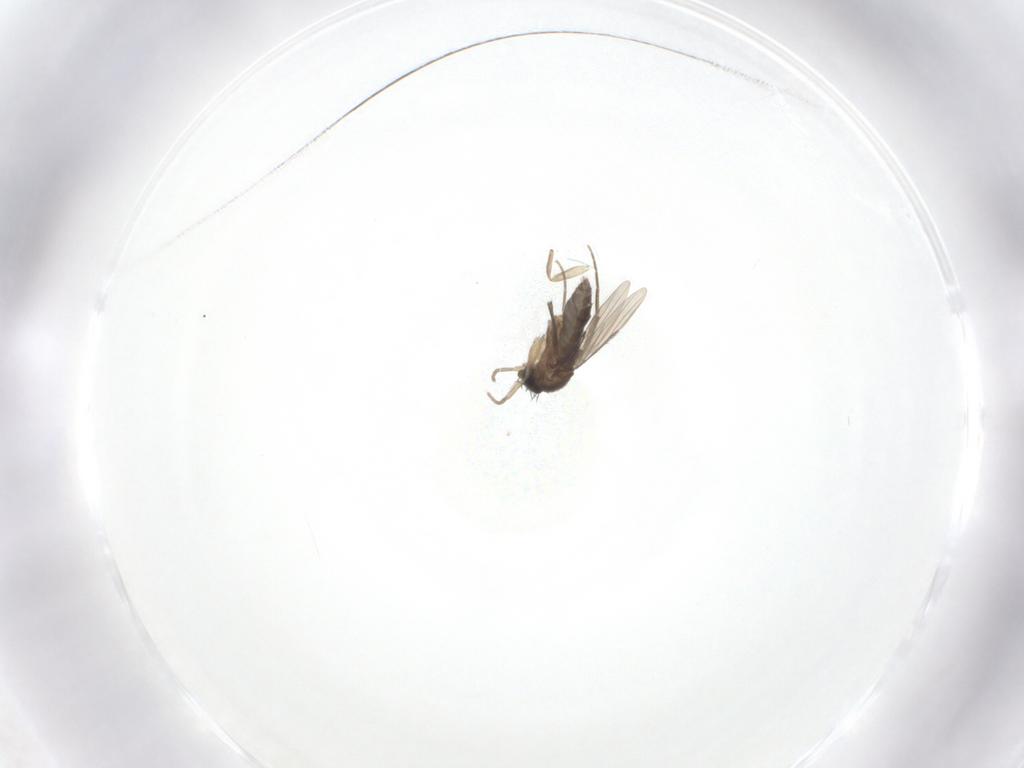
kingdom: Animalia
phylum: Arthropoda
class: Insecta
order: Diptera
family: Phoridae
